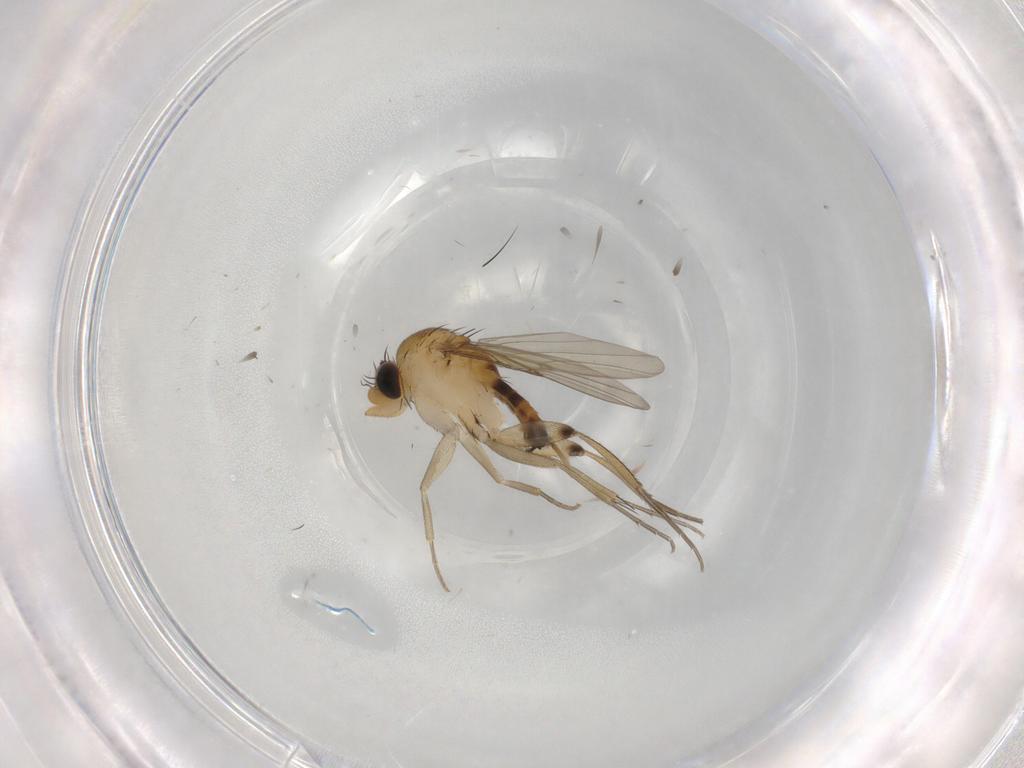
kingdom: Animalia
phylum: Arthropoda
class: Insecta
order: Diptera
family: Phoridae
